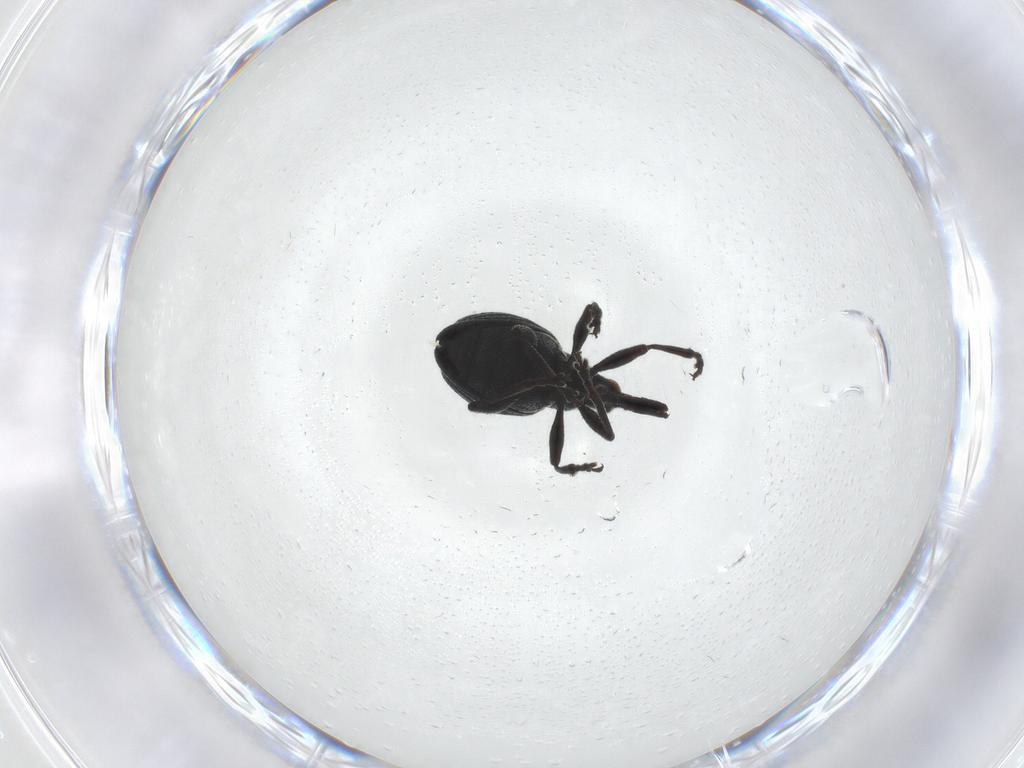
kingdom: Animalia
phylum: Arthropoda
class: Insecta
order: Coleoptera
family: Brentidae
